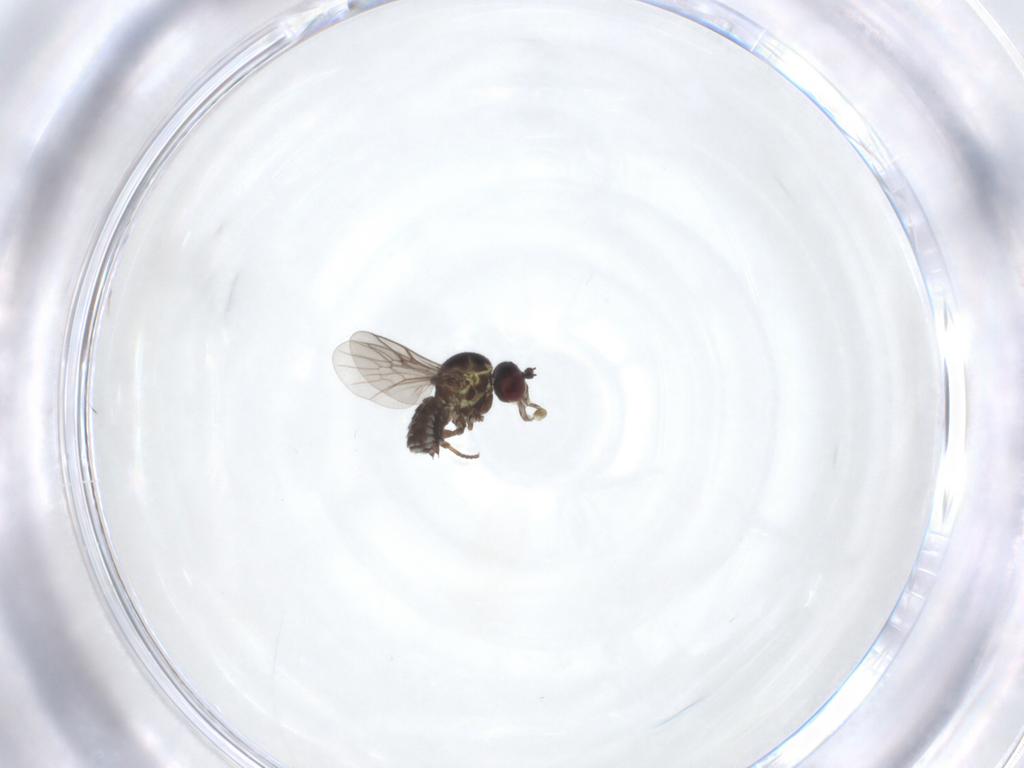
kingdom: Animalia
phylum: Arthropoda
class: Insecta
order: Diptera
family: Bombyliidae
